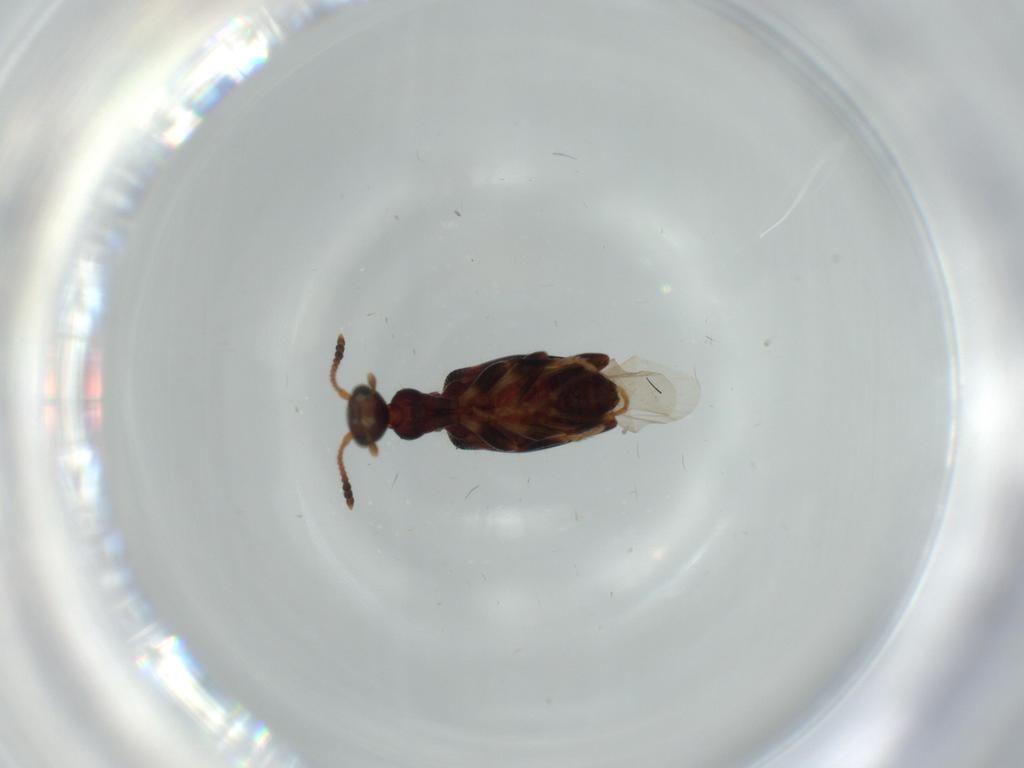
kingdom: Animalia
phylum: Arthropoda
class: Insecta
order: Coleoptera
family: Anthicidae
